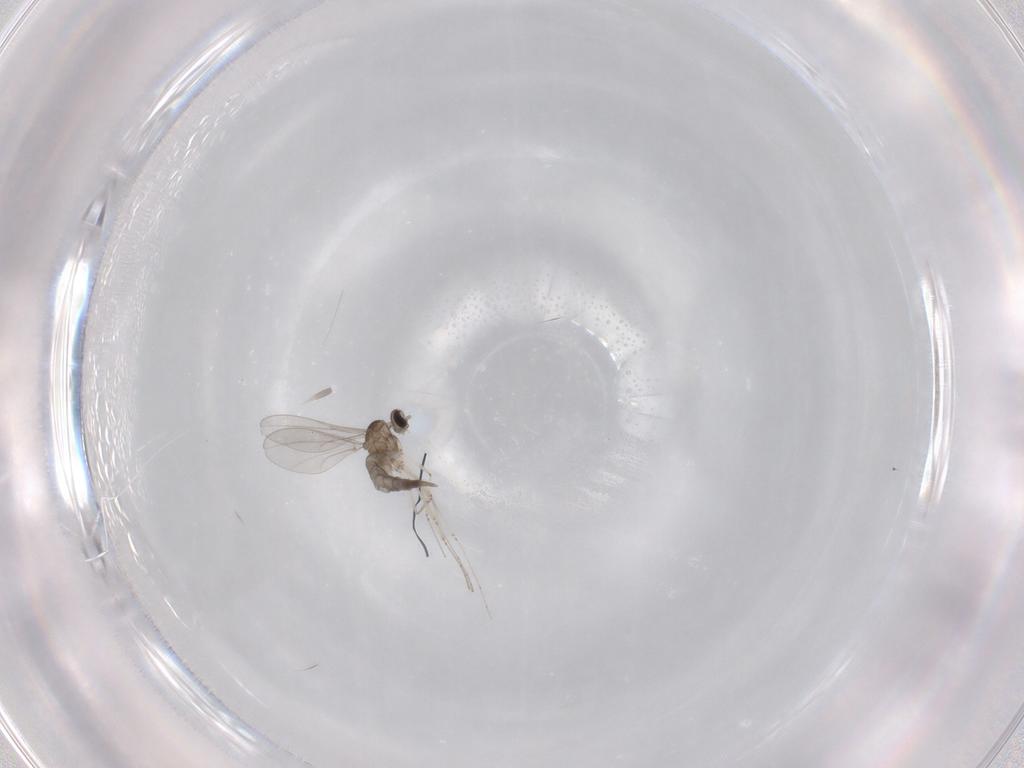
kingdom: Animalia
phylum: Arthropoda
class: Insecta
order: Diptera
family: Cecidomyiidae
